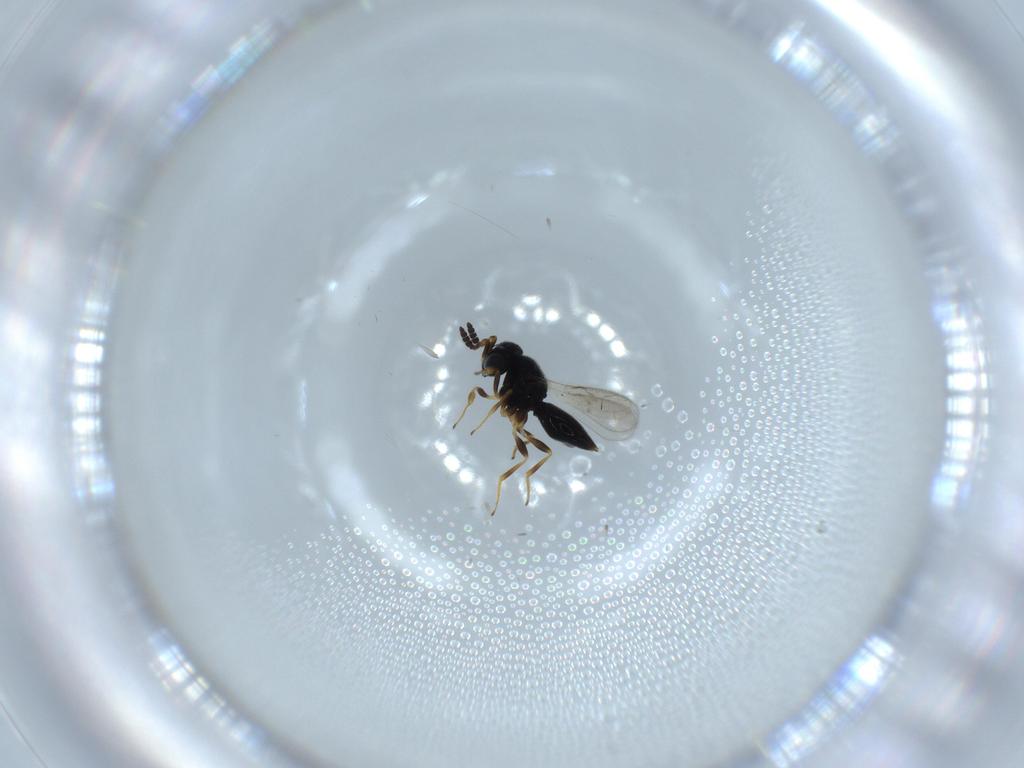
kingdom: Animalia
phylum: Arthropoda
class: Insecta
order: Hymenoptera
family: Scelionidae
